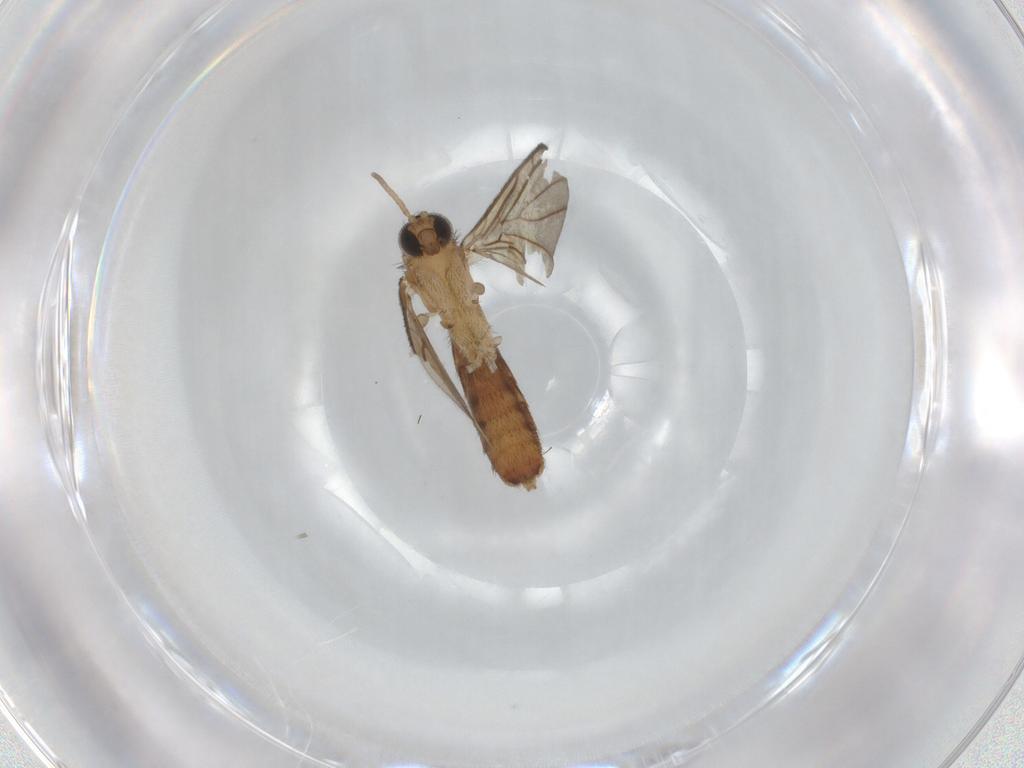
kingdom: Animalia
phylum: Arthropoda
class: Insecta
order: Diptera
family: Keroplatidae
